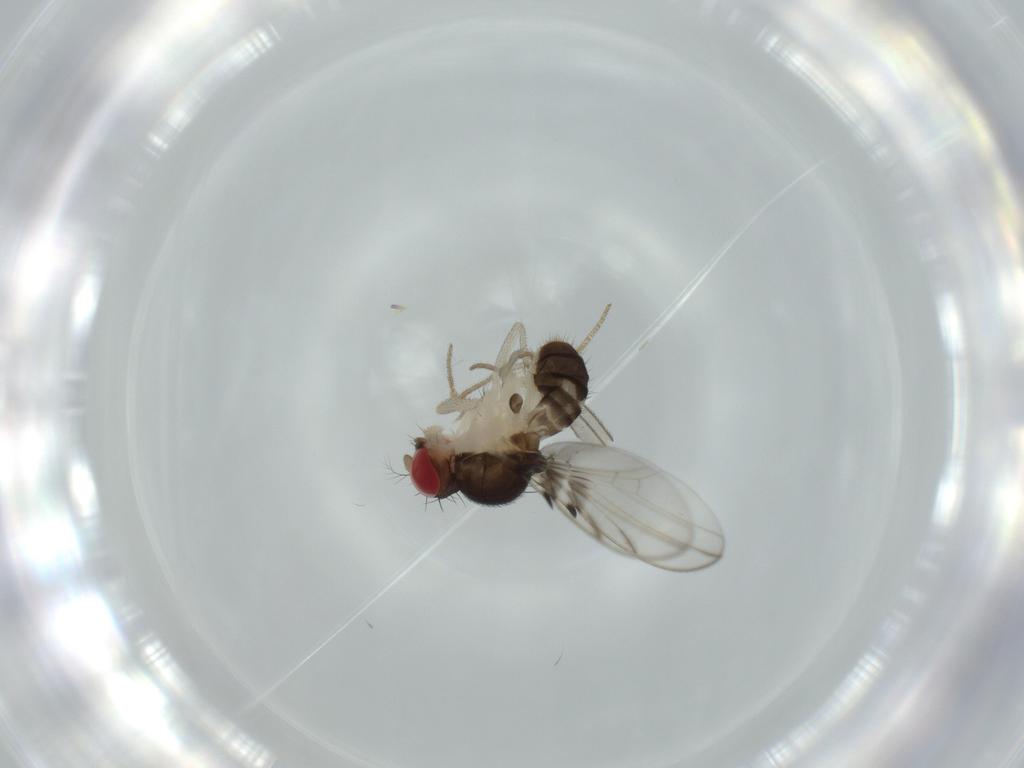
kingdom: Animalia
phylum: Arthropoda
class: Insecta
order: Diptera
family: Drosophilidae
